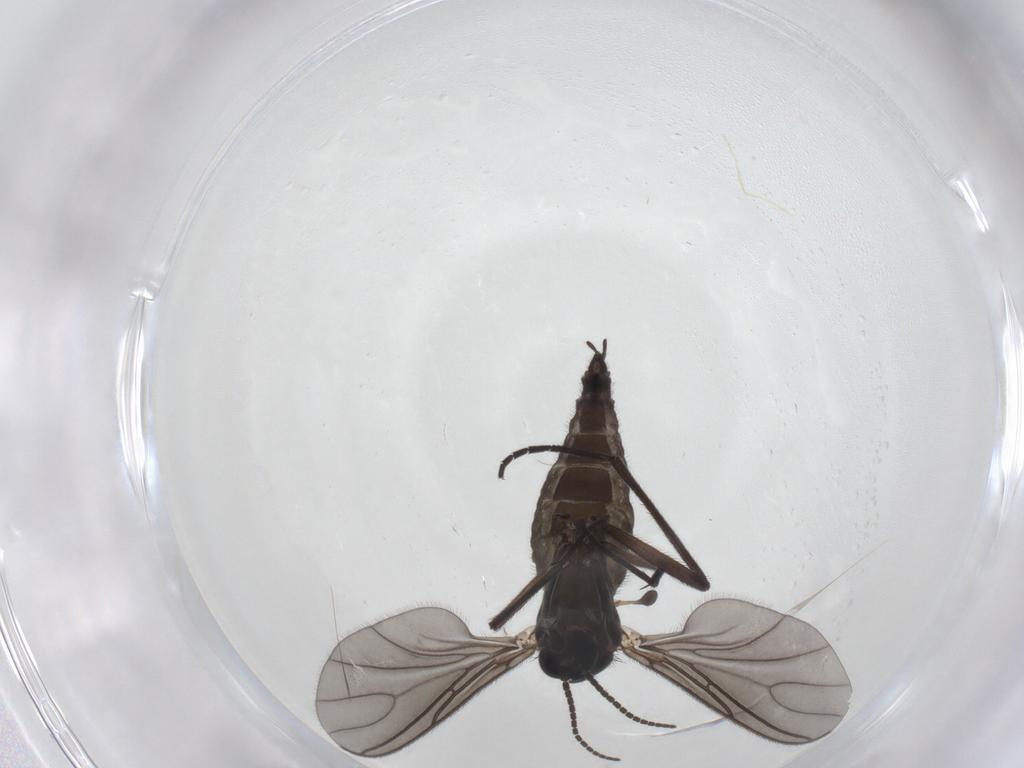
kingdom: Animalia
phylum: Arthropoda
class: Insecta
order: Diptera
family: Sciaridae
